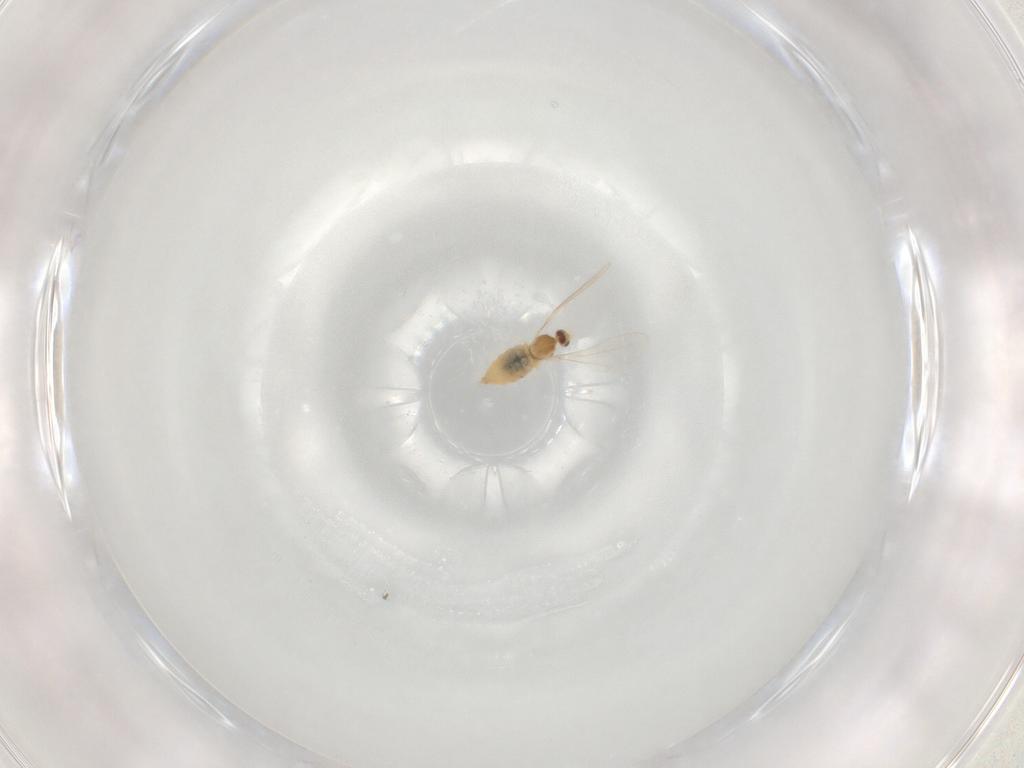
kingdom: Animalia
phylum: Arthropoda
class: Insecta
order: Diptera
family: Cecidomyiidae
